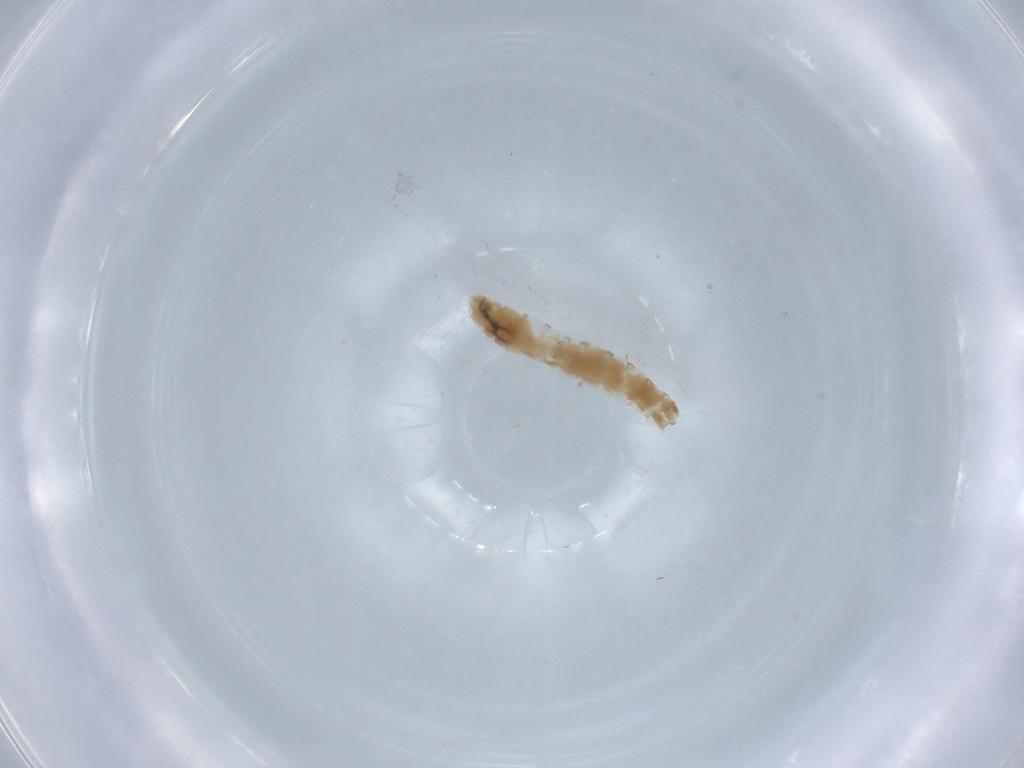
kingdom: Animalia
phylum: Arthropoda
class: Insecta
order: Diptera
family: Sarcophagidae
